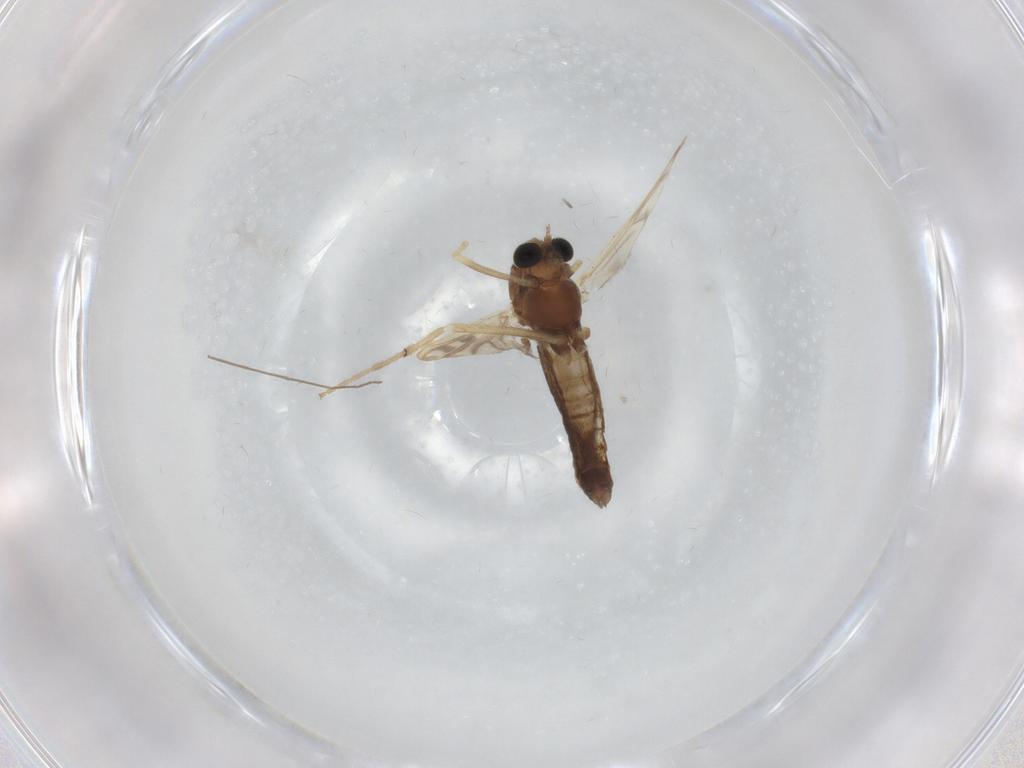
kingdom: Animalia
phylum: Arthropoda
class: Insecta
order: Diptera
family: Chironomidae
